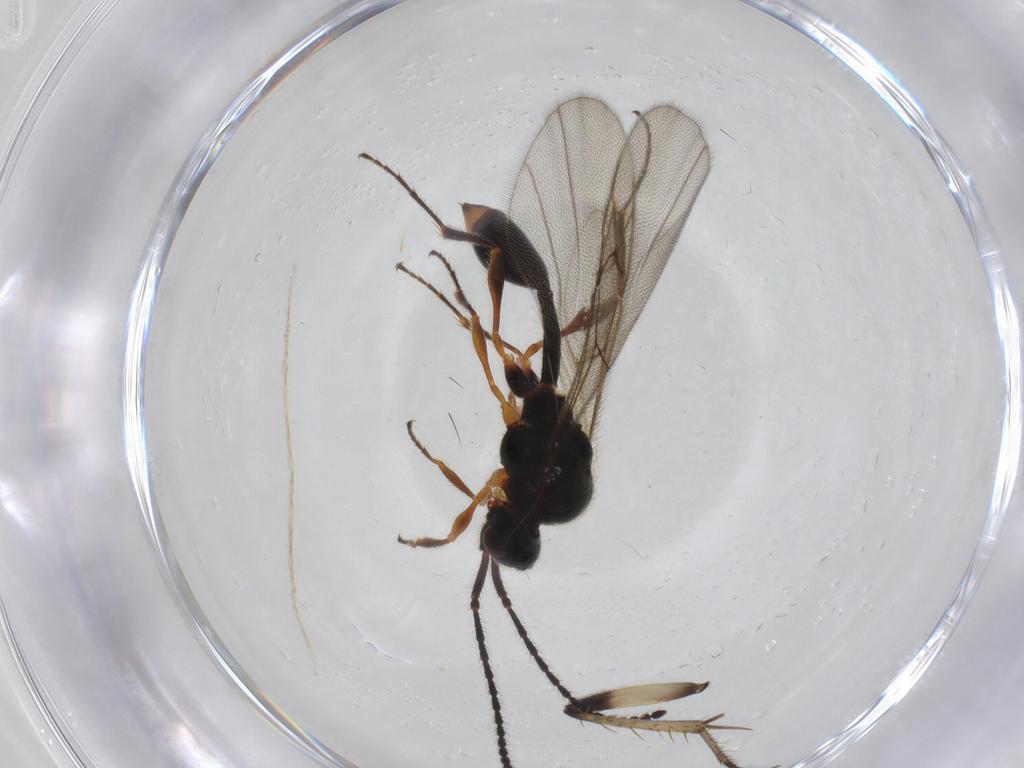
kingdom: Animalia
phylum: Arthropoda
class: Insecta
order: Hymenoptera
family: Diapriidae
